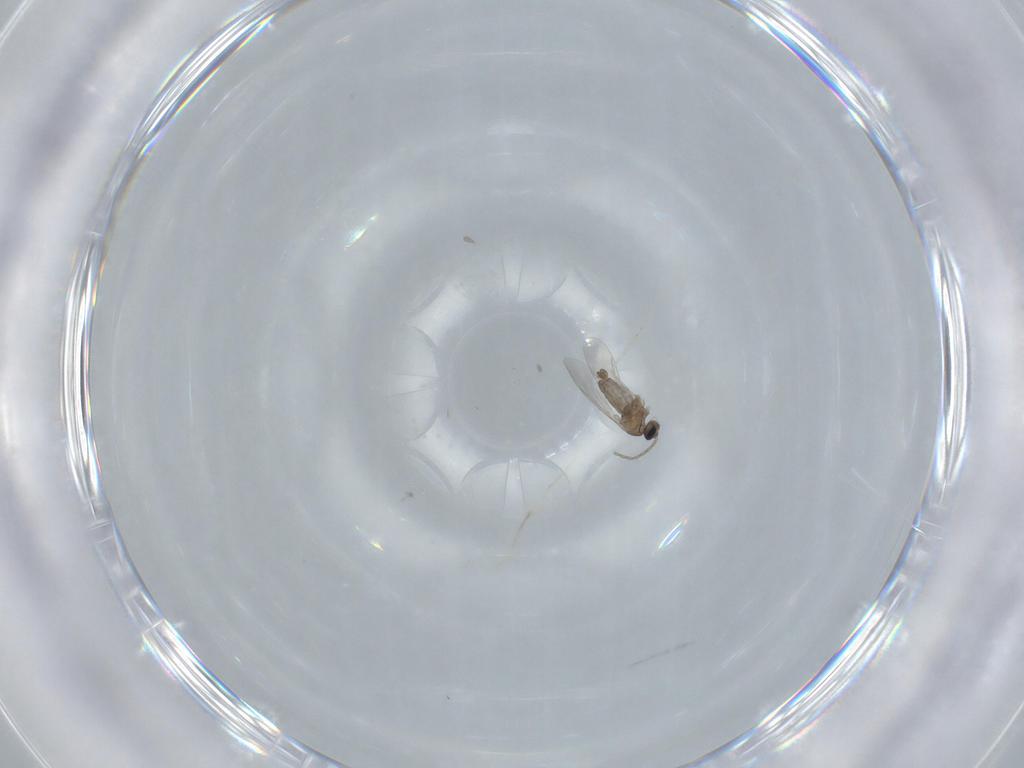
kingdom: Animalia
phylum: Arthropoda
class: Insecta
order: Diptera
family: Cecidomyiidae
